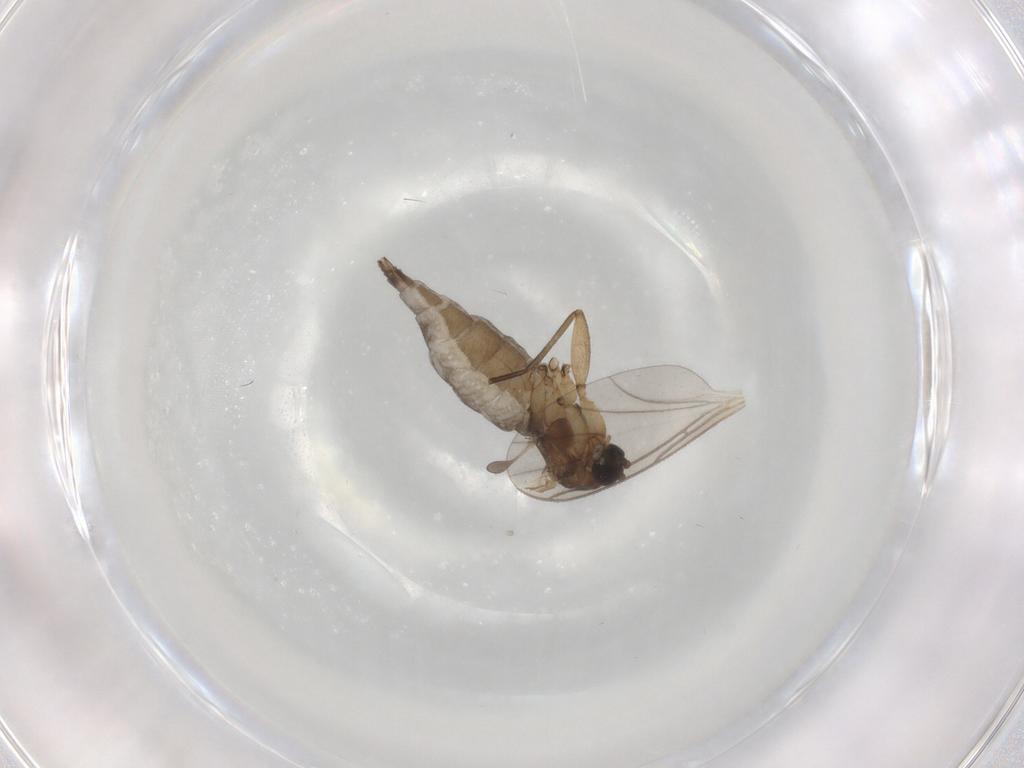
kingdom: Animalia
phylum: Arthropoda
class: Insecta
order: Diptera
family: Sciaridae
